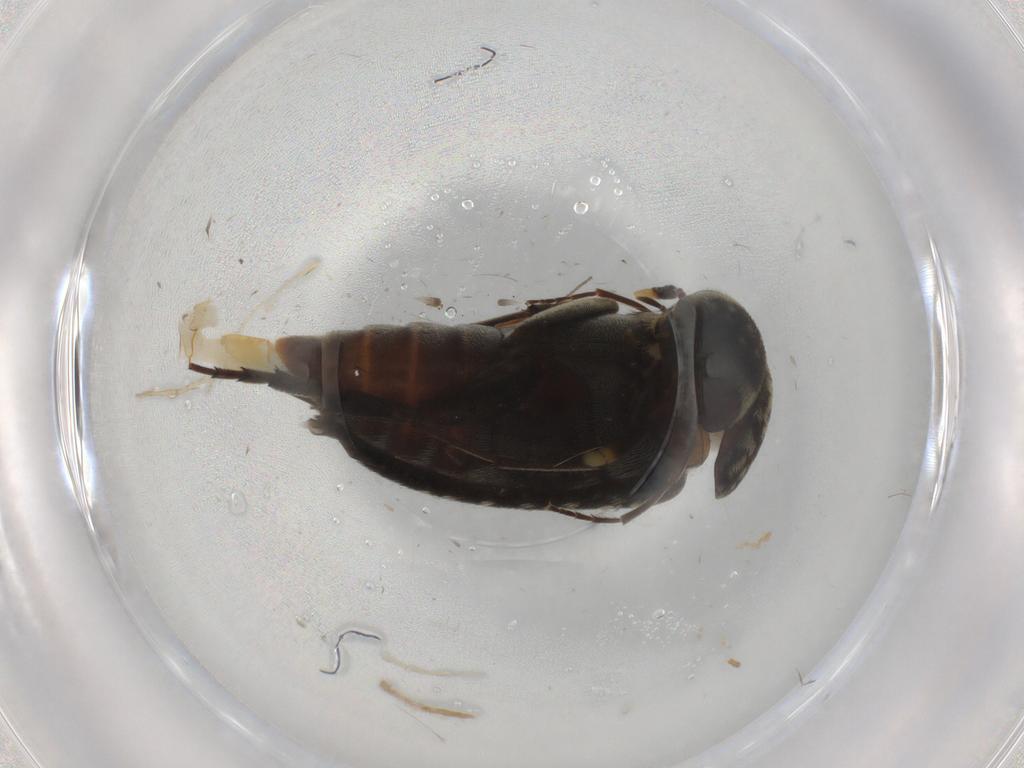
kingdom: Animalia
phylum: Arthropoda
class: Insecta
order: Coleoptera
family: Mordellidae
